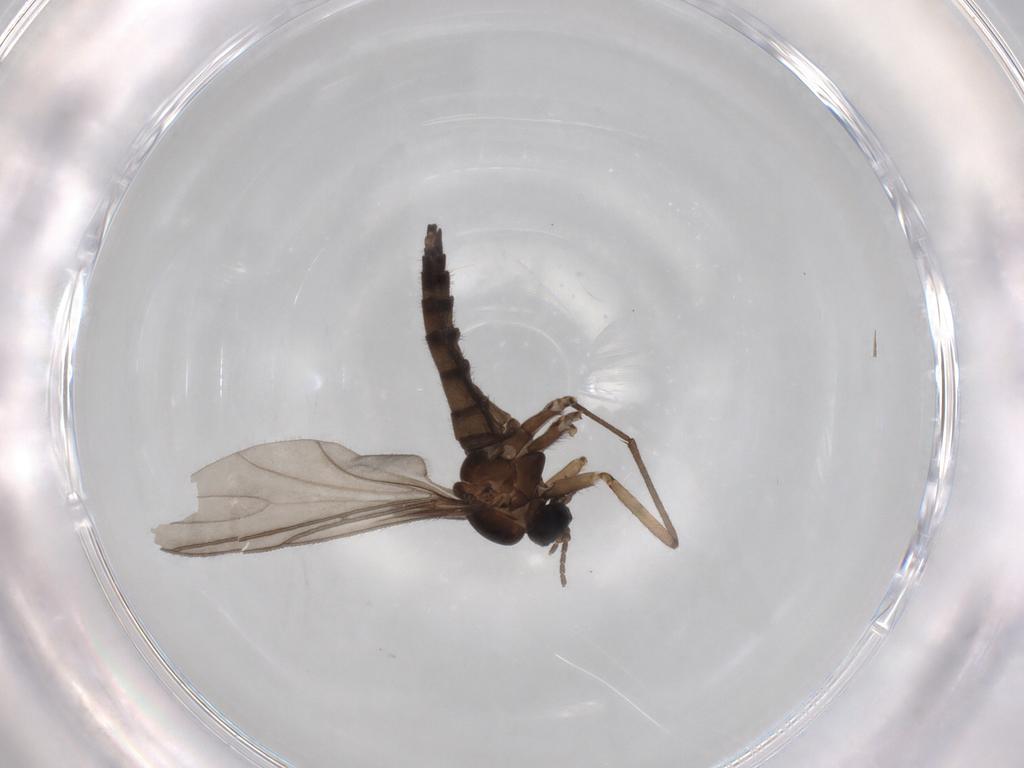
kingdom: Animalia
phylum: Arthropoda
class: Insecta
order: Diptera
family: Sciaridae
